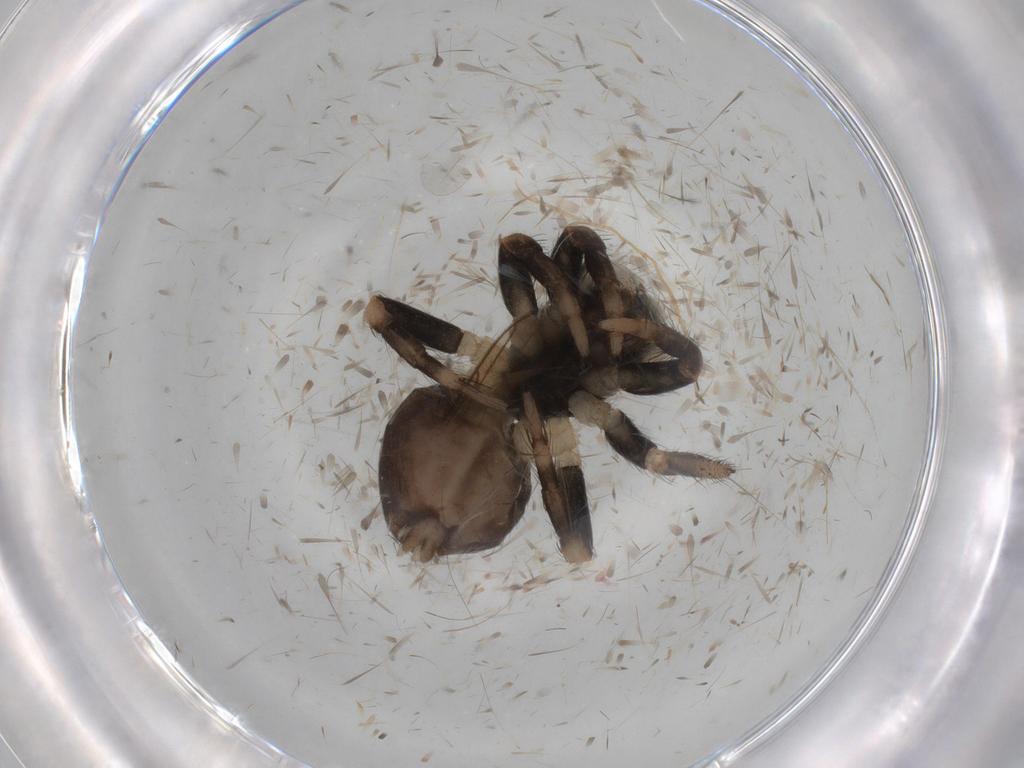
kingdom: Animalia
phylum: Arthropoda
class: Arachnida
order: Araneae
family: Salticidae
